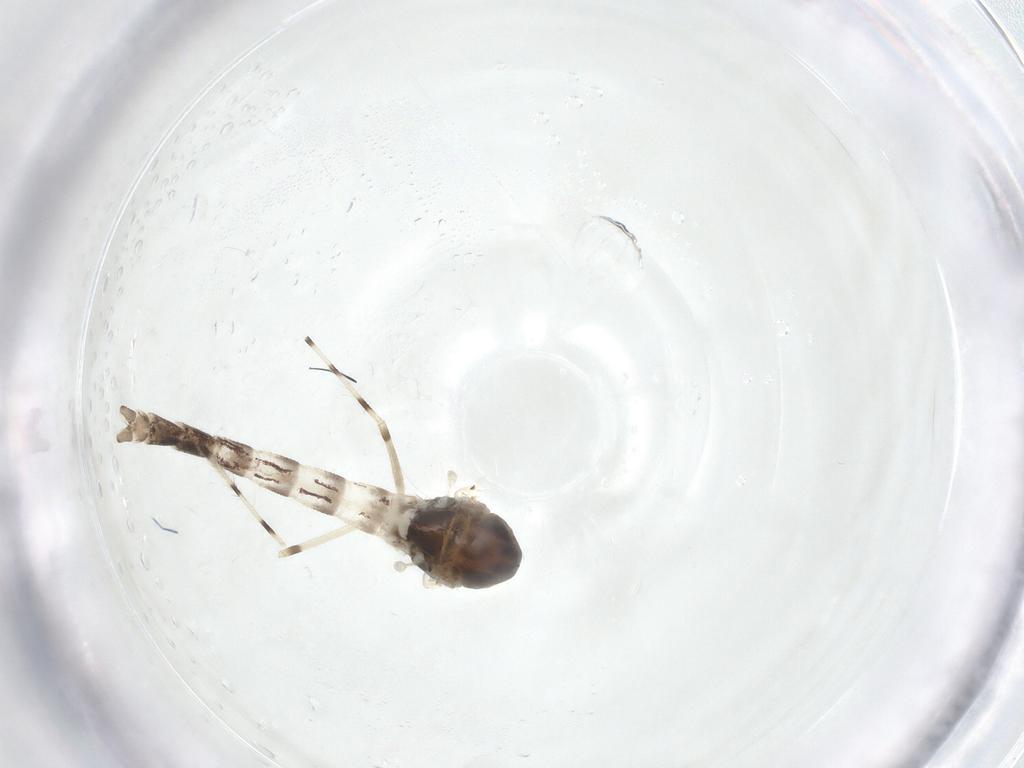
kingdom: Animalia
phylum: Arthropoda
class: Insecta
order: Diptera
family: Chironomidae
